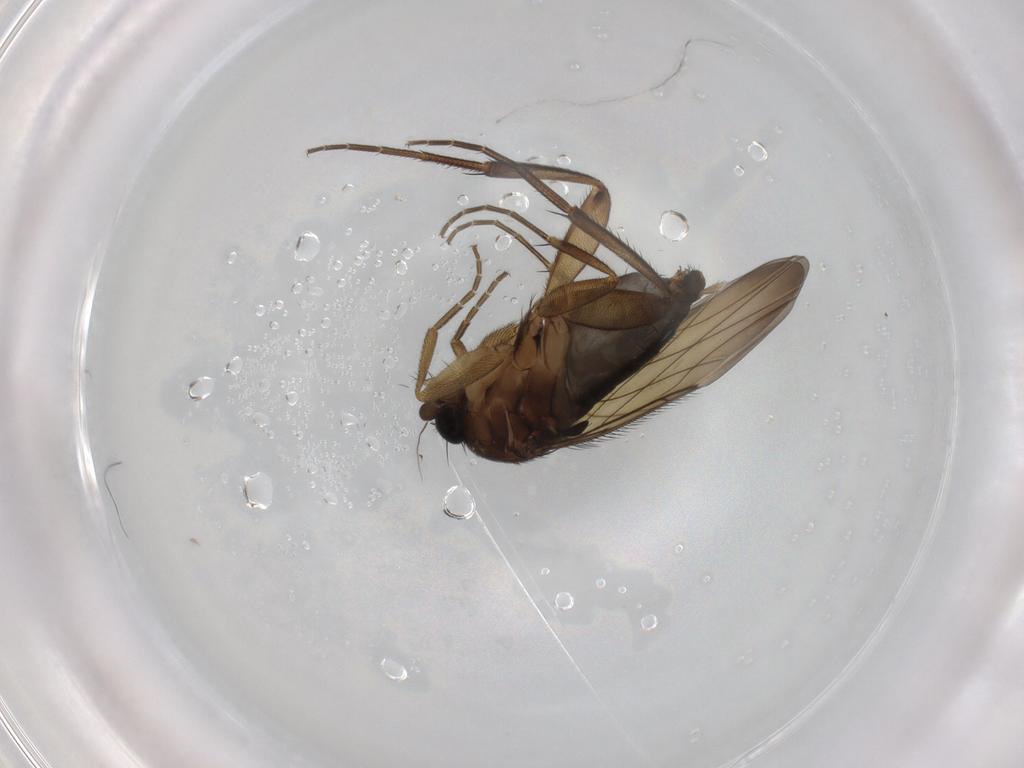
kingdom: Animalia
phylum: Arthropoda
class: Insecta
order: Diptera
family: Phoridae
